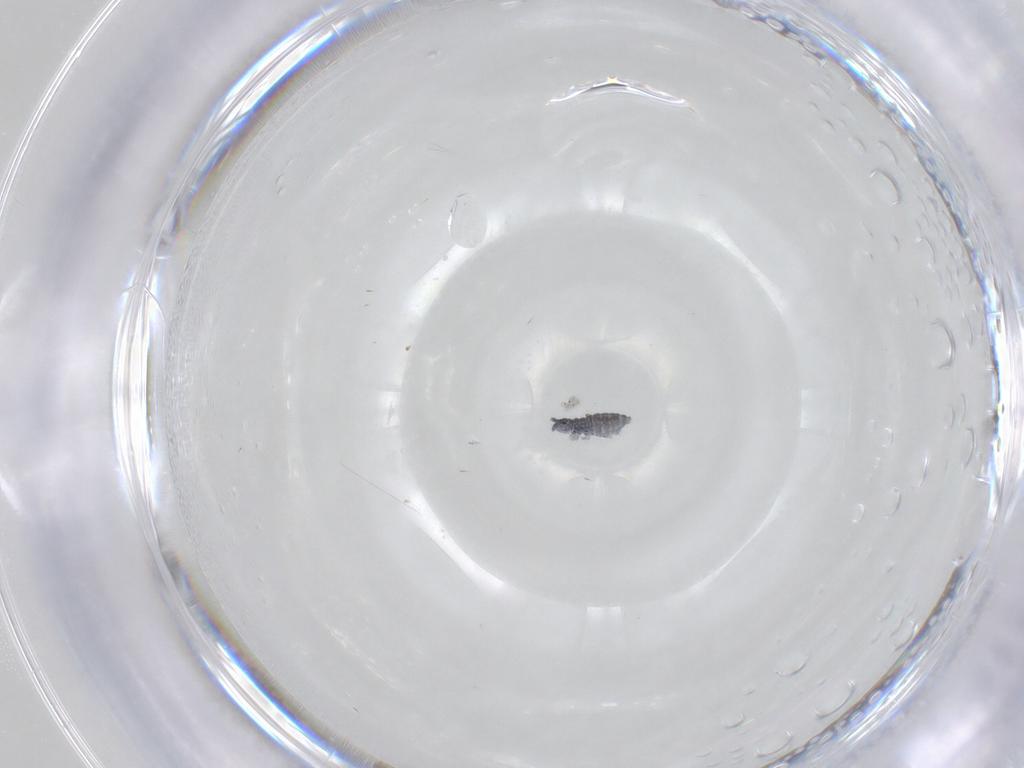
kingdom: Animalia
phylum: Arthropoda
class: Collembola
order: Poduromorpha
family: Hypogastruridae
